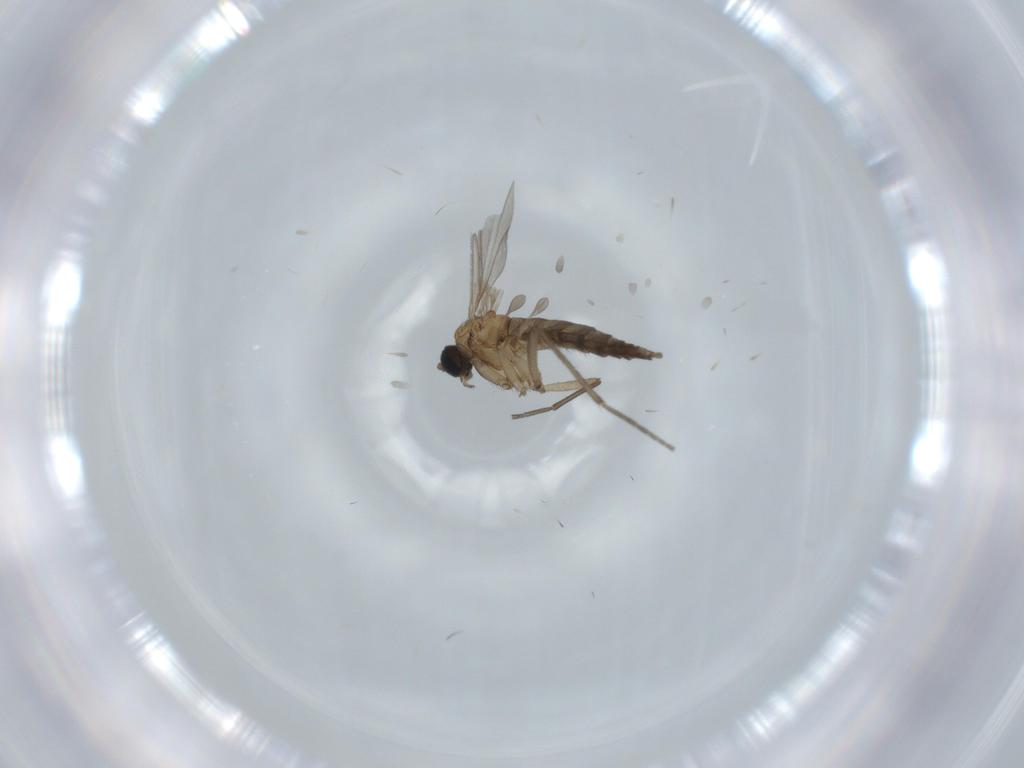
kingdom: Animalia
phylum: Arthropoda
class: Insecta
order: Diptera
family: Sciaridae
